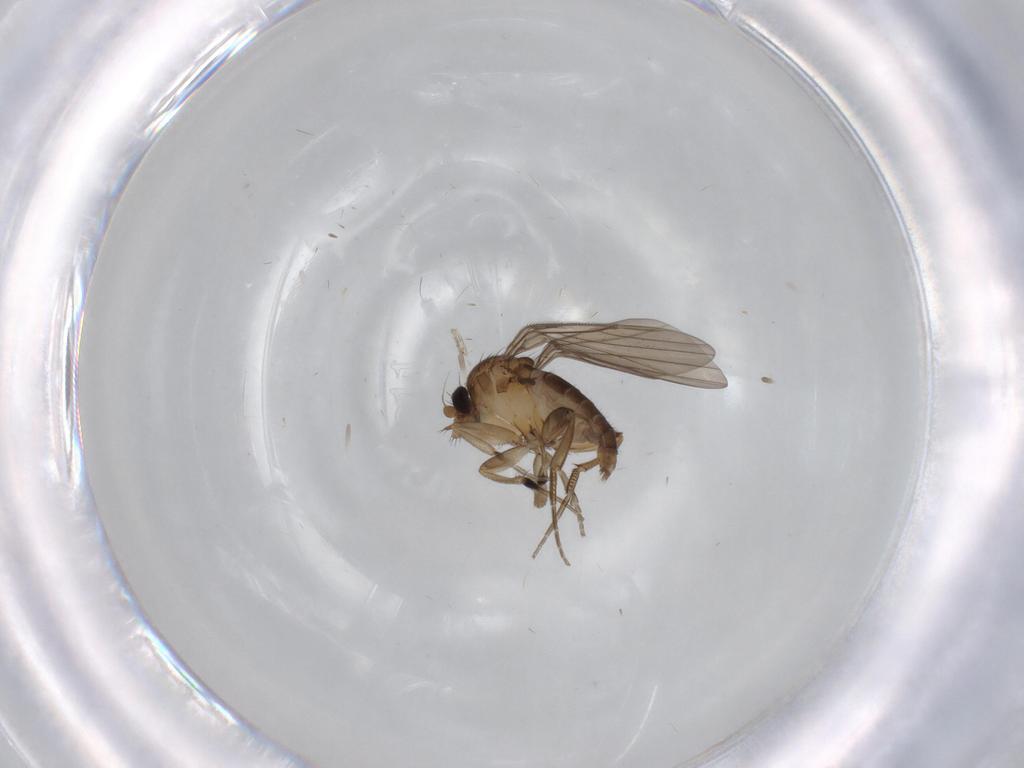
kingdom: Animalia
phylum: Arthropoda
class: Insecta
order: Diptera
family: Phoridae
